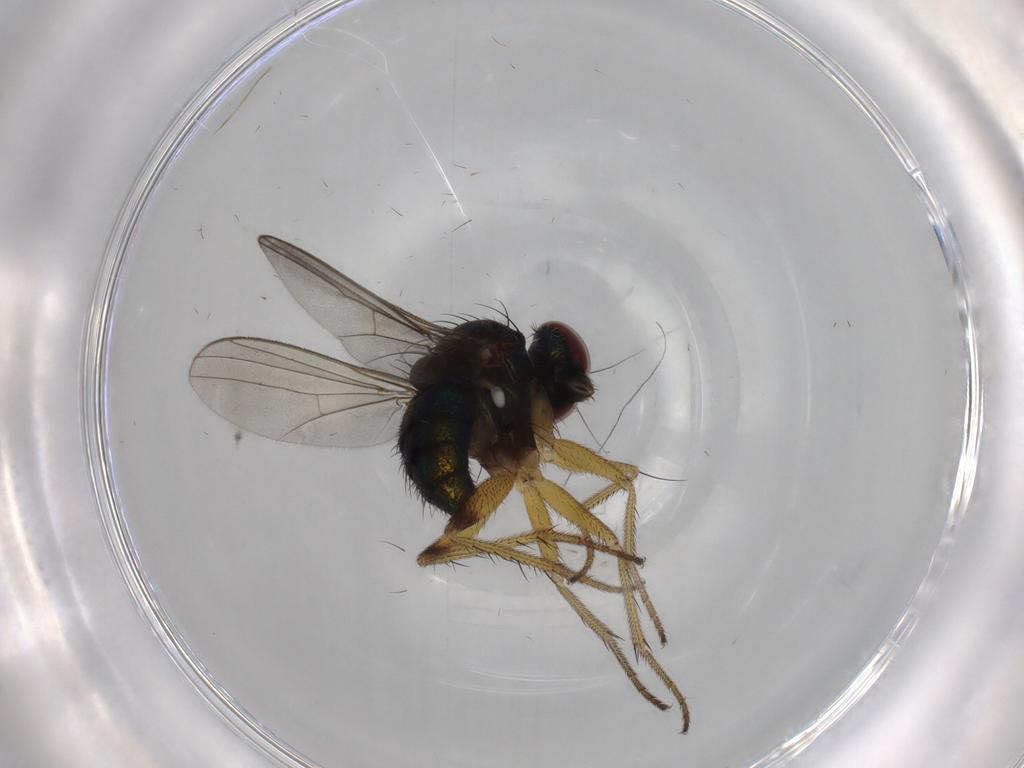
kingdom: Animalia
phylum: Arthropoda
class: Insecta
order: Diptera
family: Dolichopodidae
